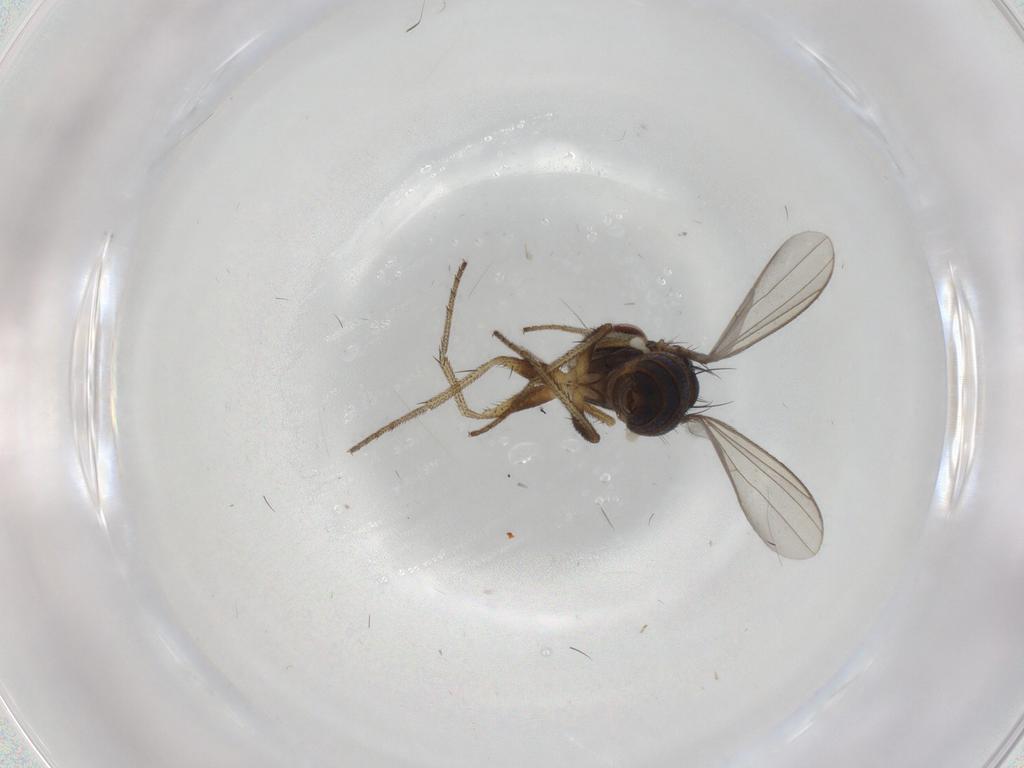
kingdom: Animalia
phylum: Arthropoda
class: Insecta
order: Diptera
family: Dolichopodidae
